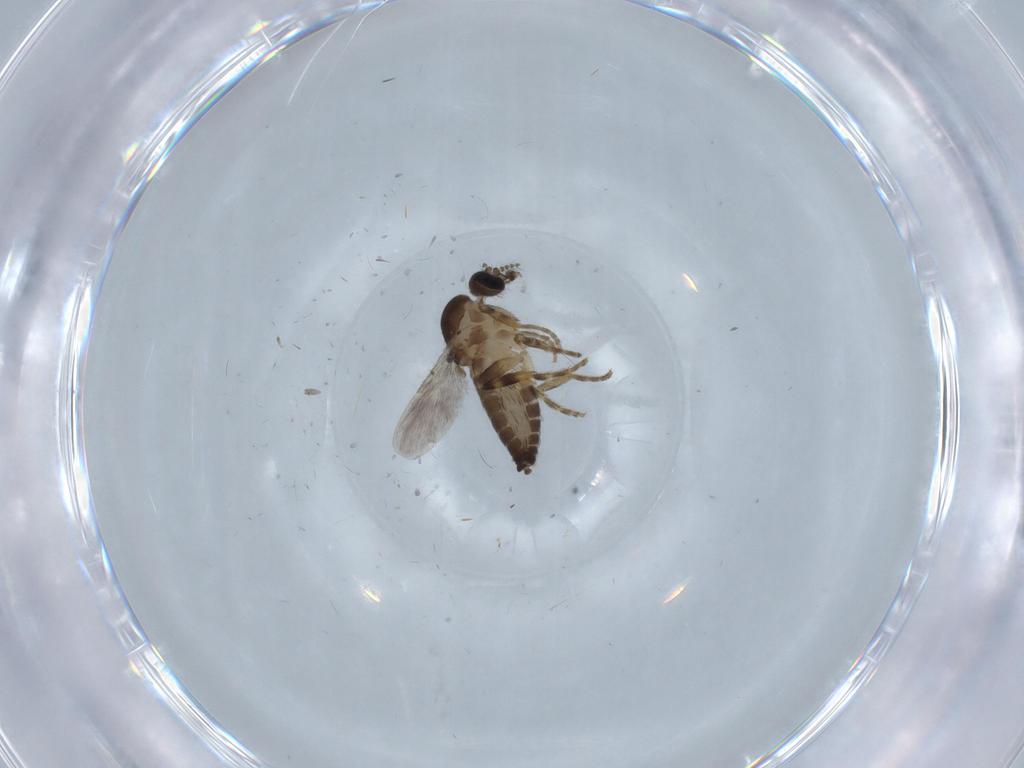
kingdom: Animalia
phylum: Arthropoda
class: Insecta
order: Diptera
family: Ceratopogonidae
